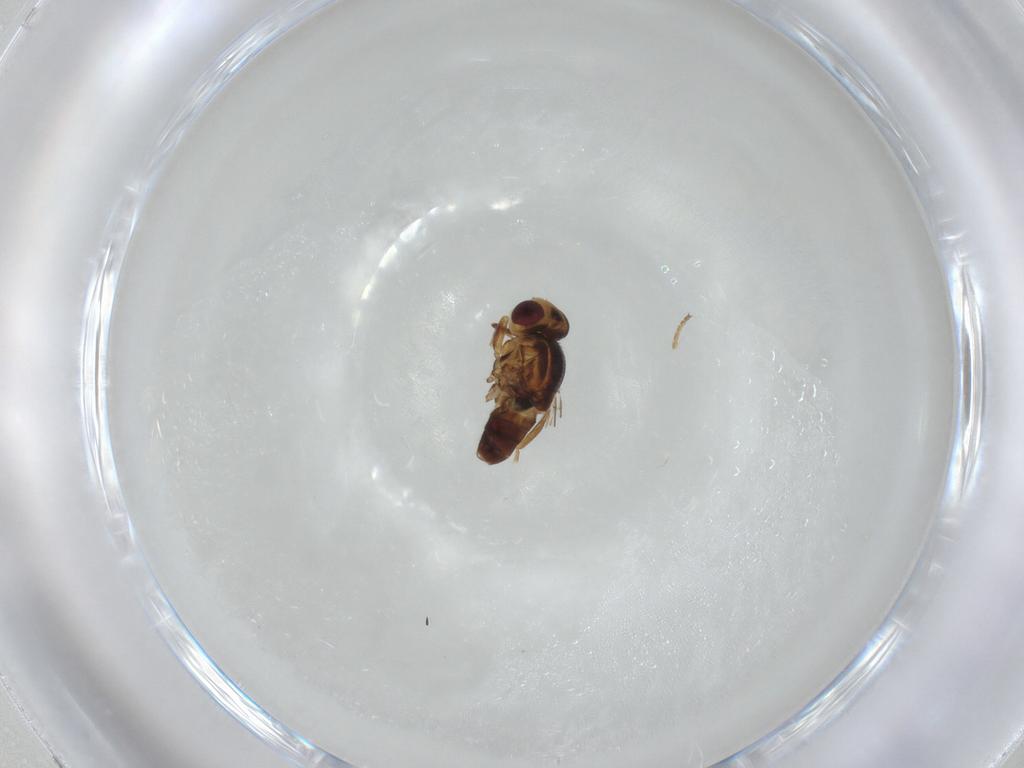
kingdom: Animalia
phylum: Arthropoda
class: Insecta
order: Diptera
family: Chloropidae
